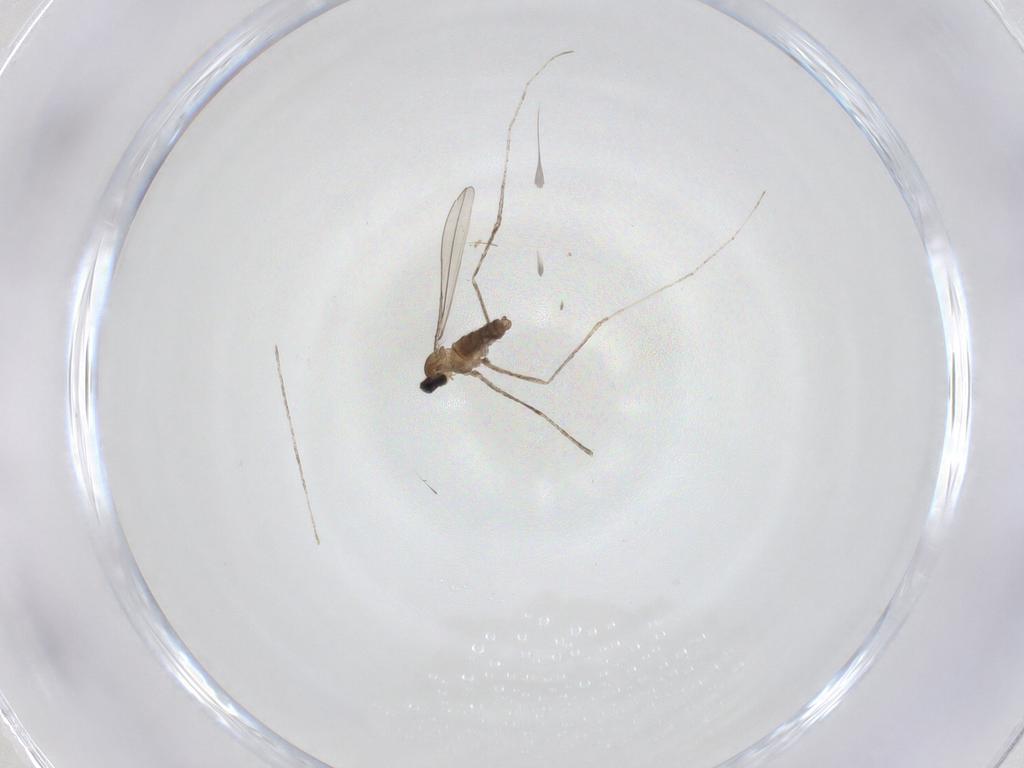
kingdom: Animalia
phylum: Arthropoda
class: Insecta
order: Diptera
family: Cecidomyiidae
